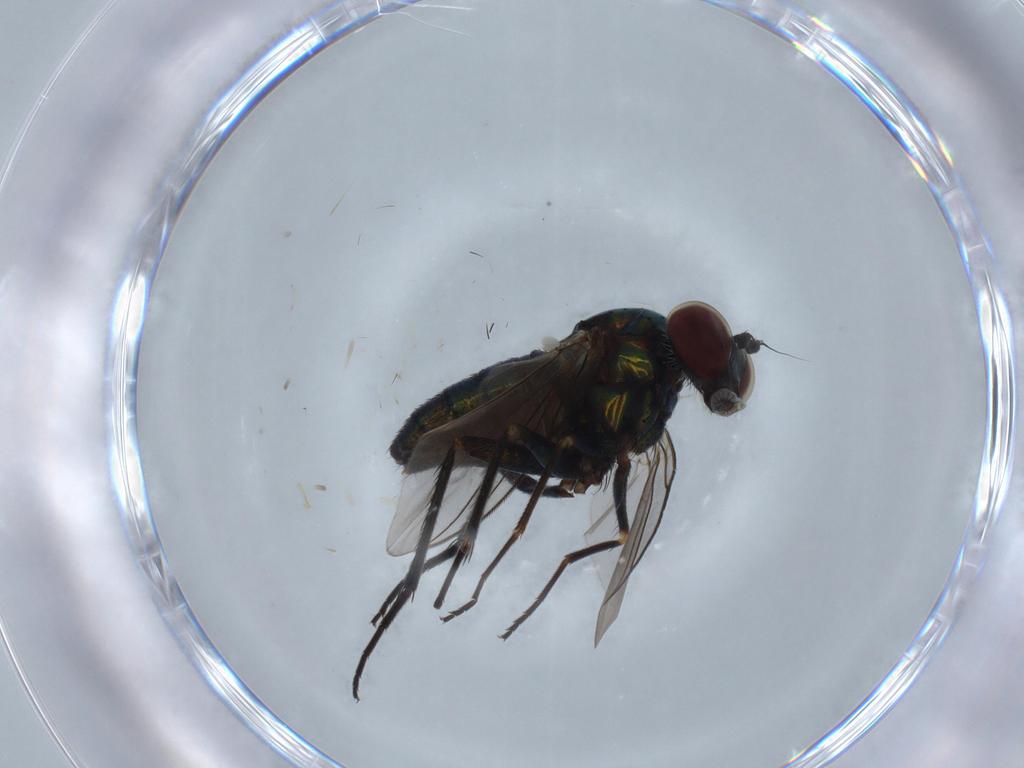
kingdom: Animalia
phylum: Arthropoda
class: Insecta
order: Diptera
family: Dolichopodidae
